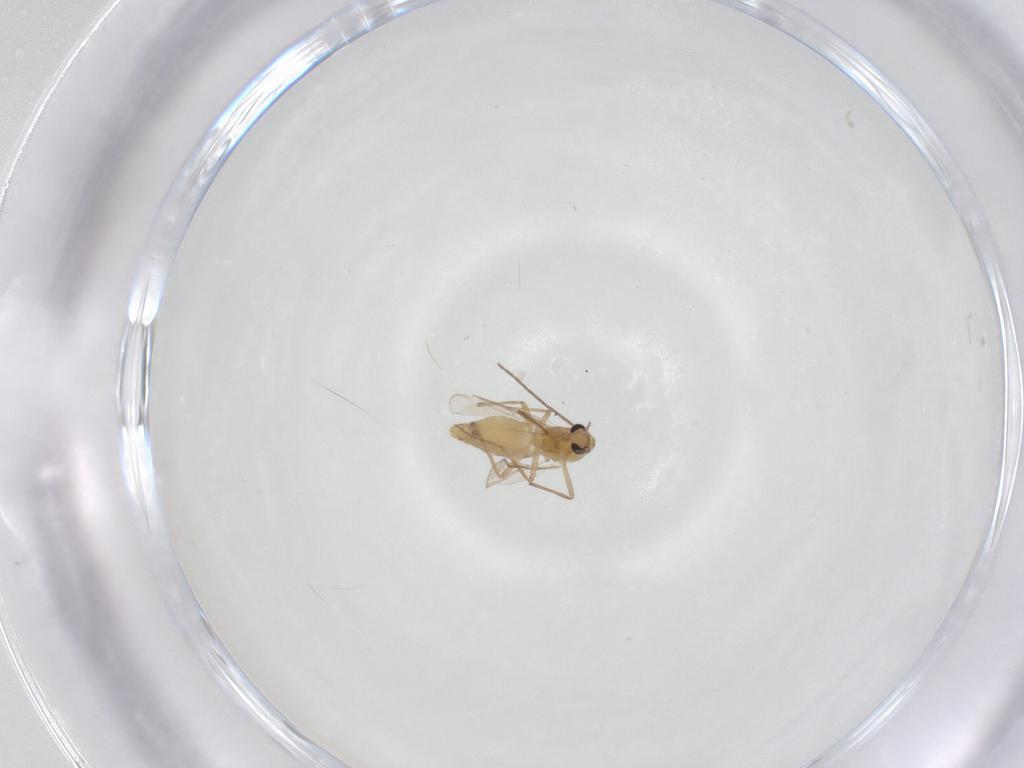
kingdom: Animalia
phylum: Arthropoda
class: Insecta
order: Diptera
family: Chironomidae
